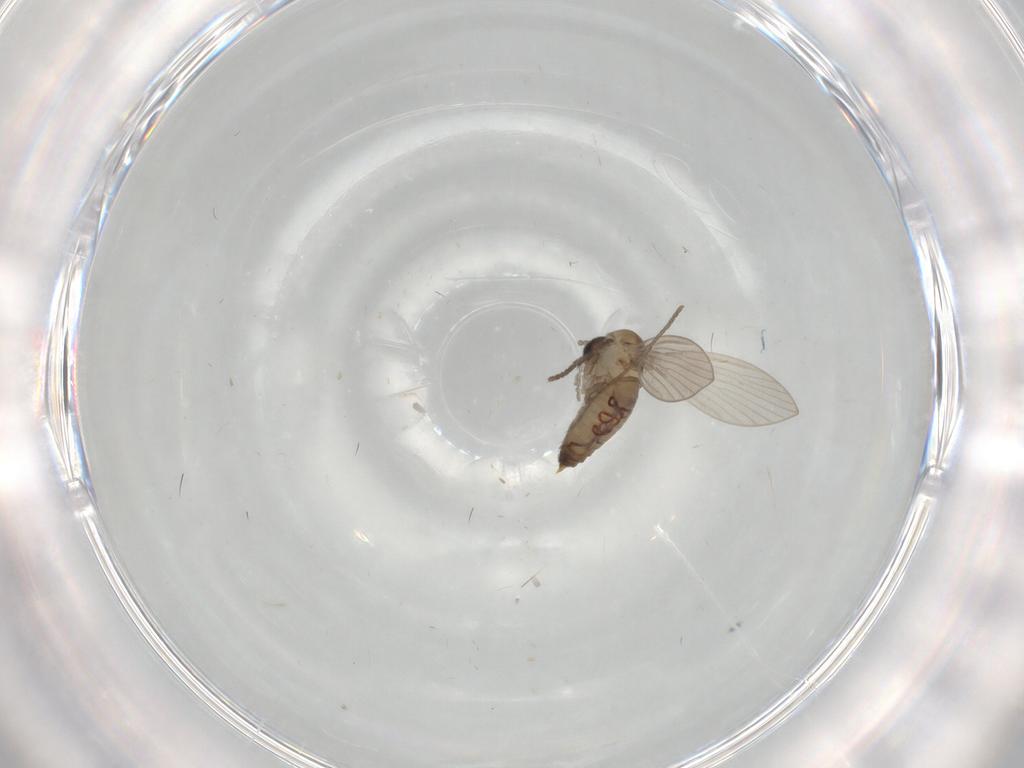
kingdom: Animalia
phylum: Arthropoda
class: Insecta
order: Diptera
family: Psychodidae
